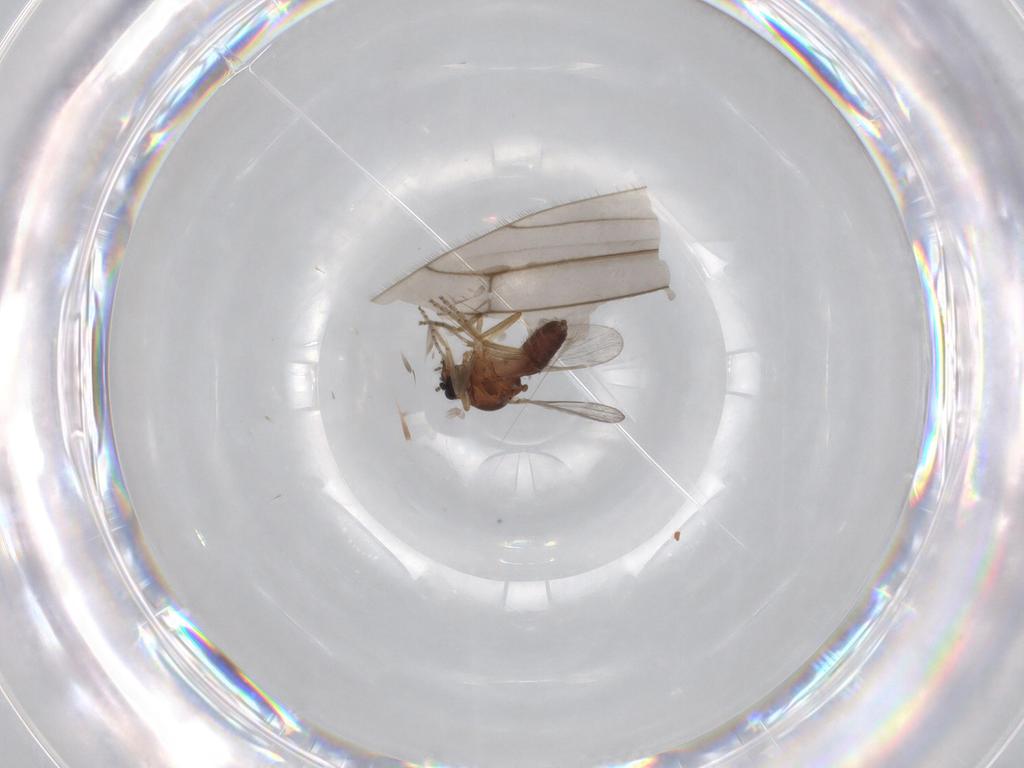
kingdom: Animalia
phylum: Arthropoda
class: Insecta
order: Diptera
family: Ceratopogonidae
